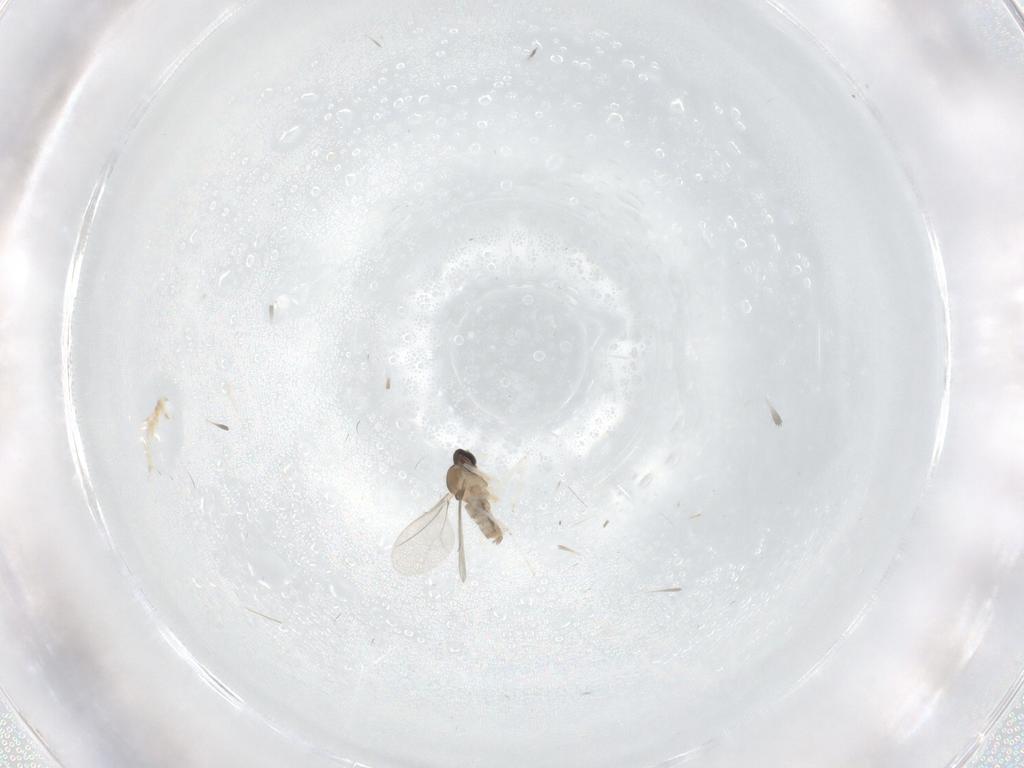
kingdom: Animalia
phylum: Arthropoda
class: Insecta
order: Diptera
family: Cecidomyiidae
